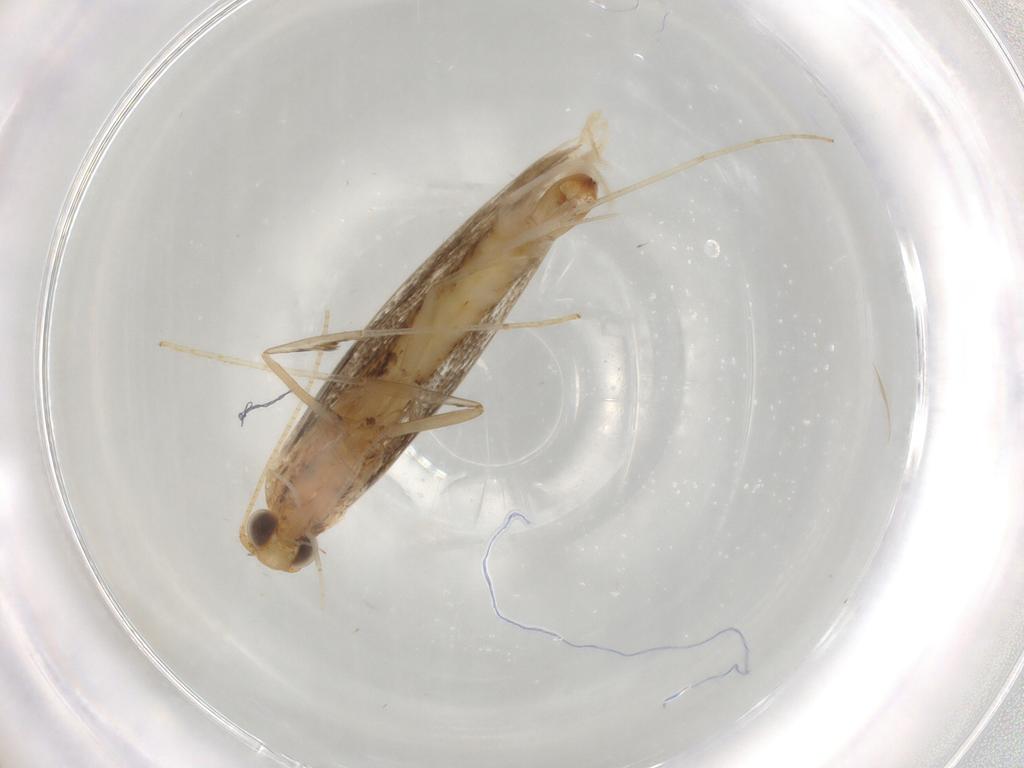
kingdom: Animalia
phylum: Arthropoda
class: Insecta
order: Lepidoptera
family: Gracillariidae
